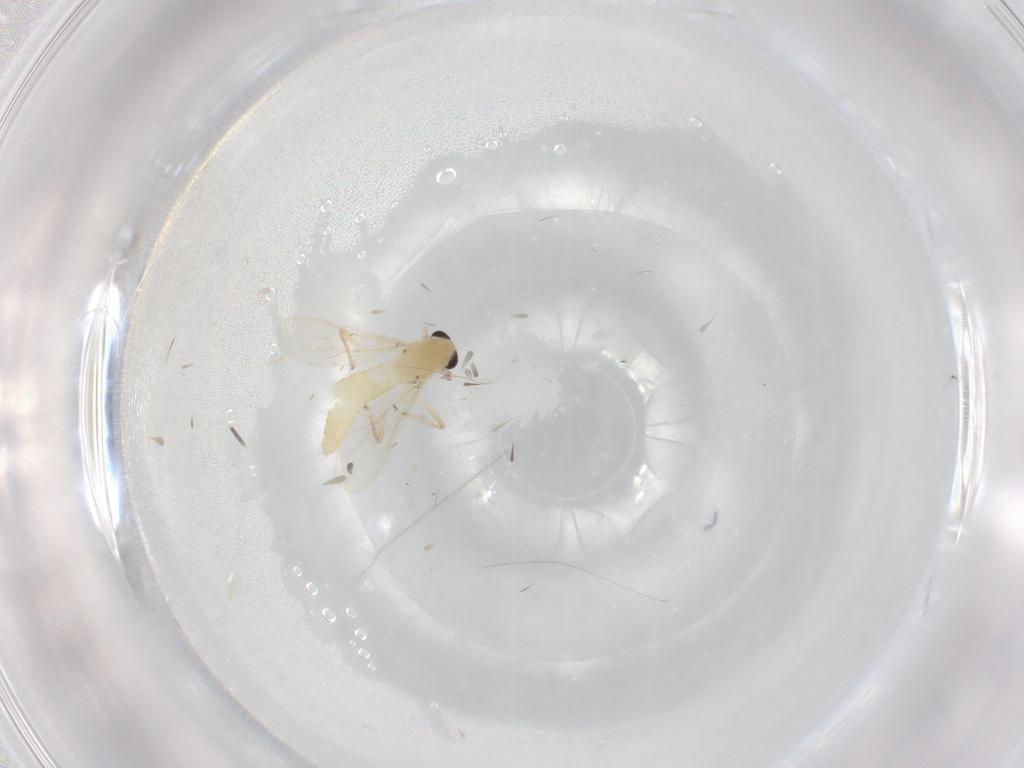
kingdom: Animalia
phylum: Arthropoda
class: Insecta
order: Diptera
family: Chironomidae
